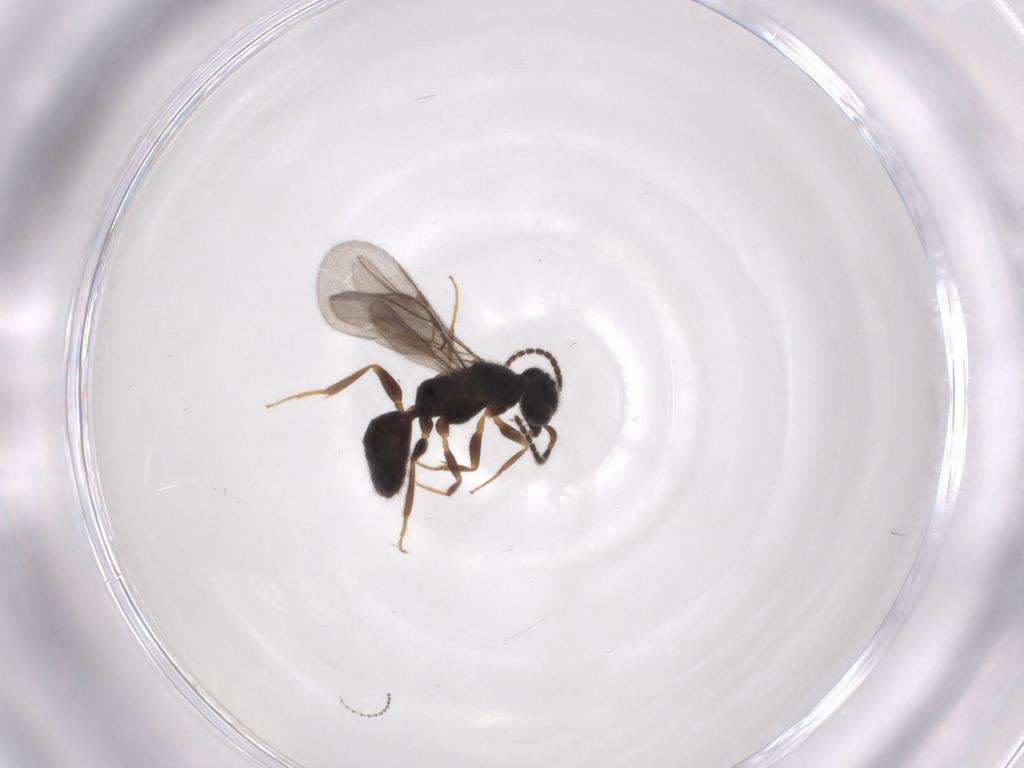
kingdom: Animalia
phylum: Arthropoda
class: Insecta
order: Hymenoptera
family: Bethylidae
